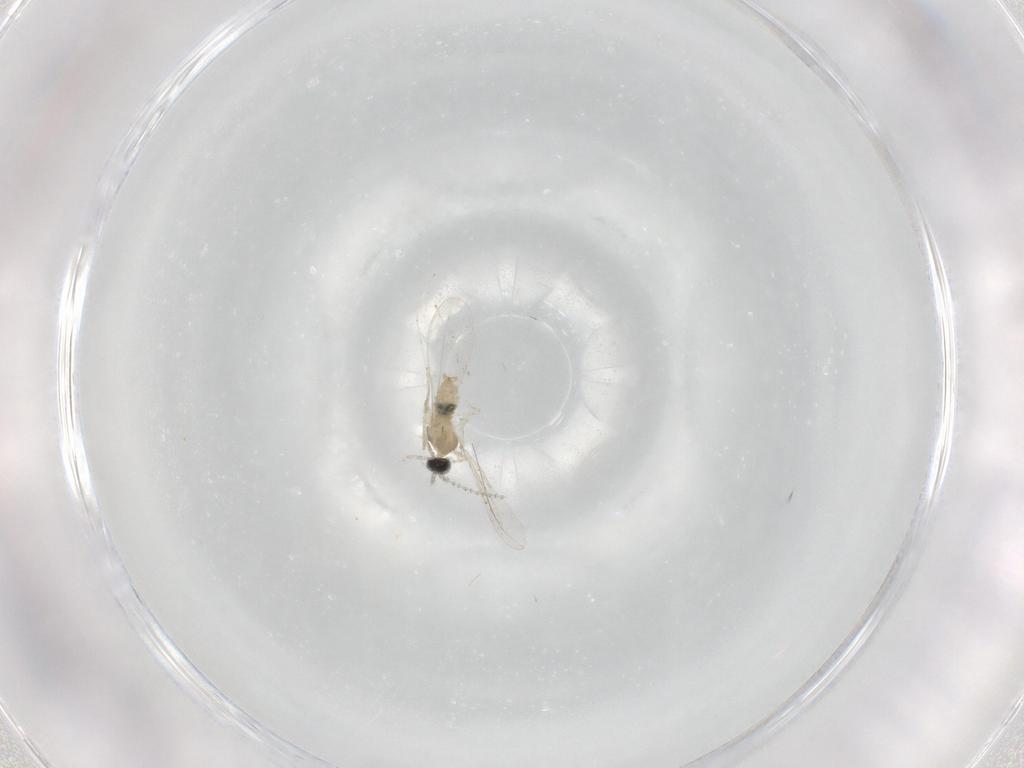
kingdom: Animalia
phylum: Arthropoda
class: Insecta
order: Diptera
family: Cecidomyiidae
